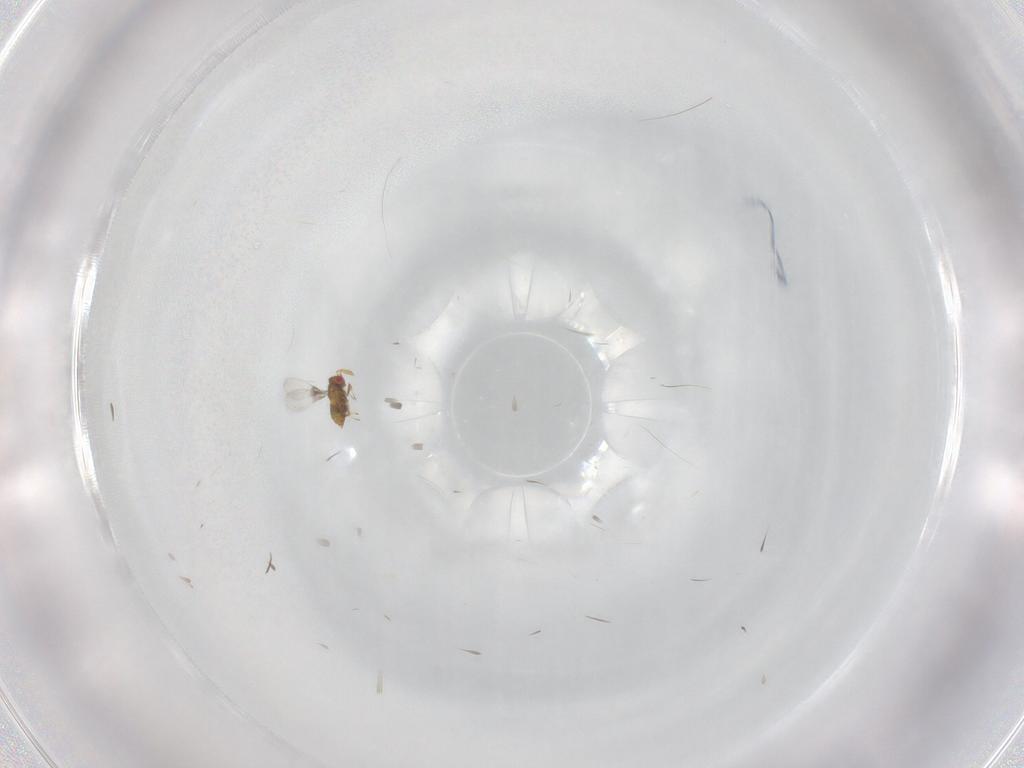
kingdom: Animalia
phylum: Arthropoda
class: Insecta
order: Hymenoptera
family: Trichogrammatidae
